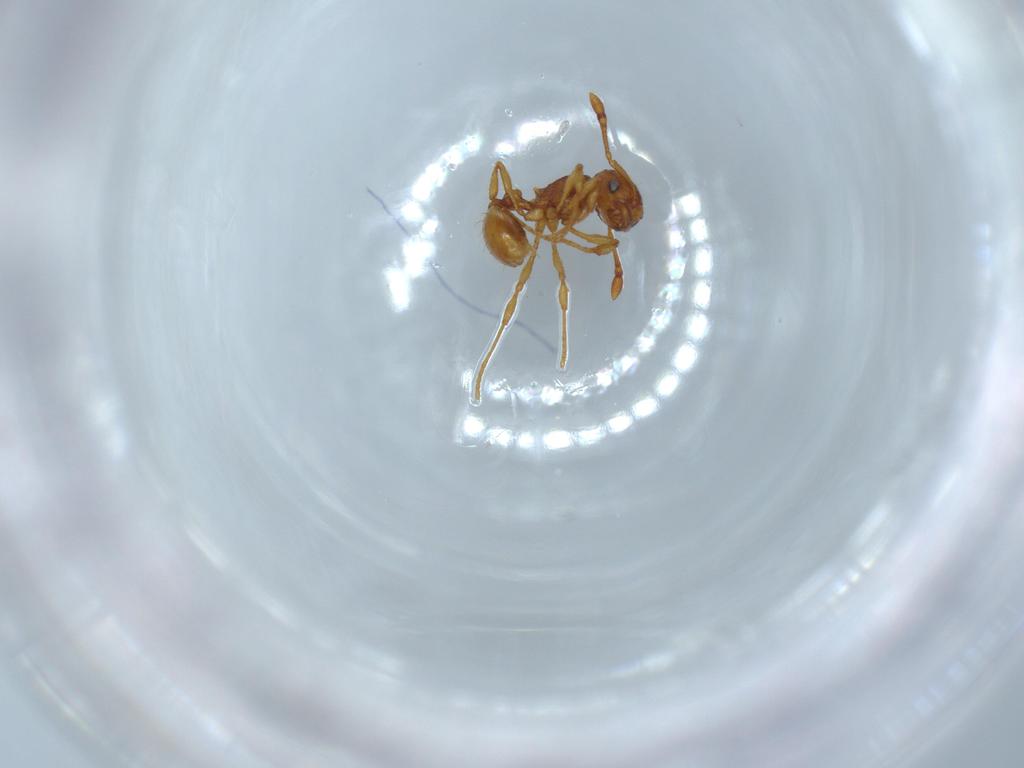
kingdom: Animalia
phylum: Arthropoda
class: Insecta
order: Hymenoptera
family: Formicidae
